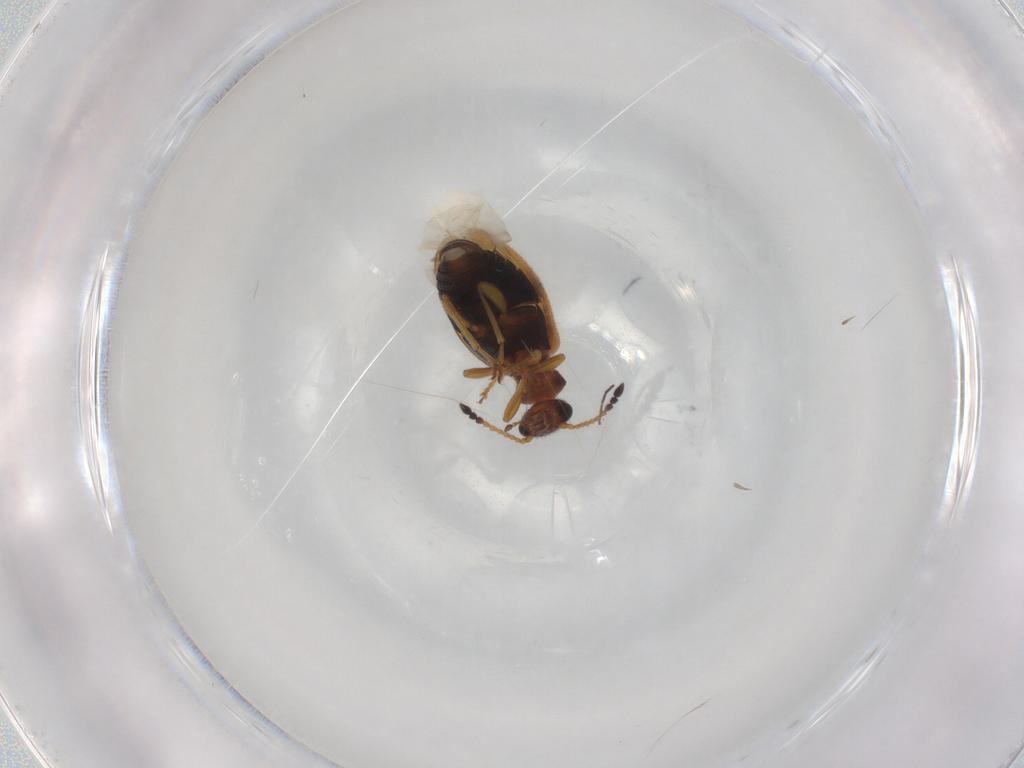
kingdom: Animalia
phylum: Arthropoda
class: Insecta
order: Coleoptera
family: Anthicidae
